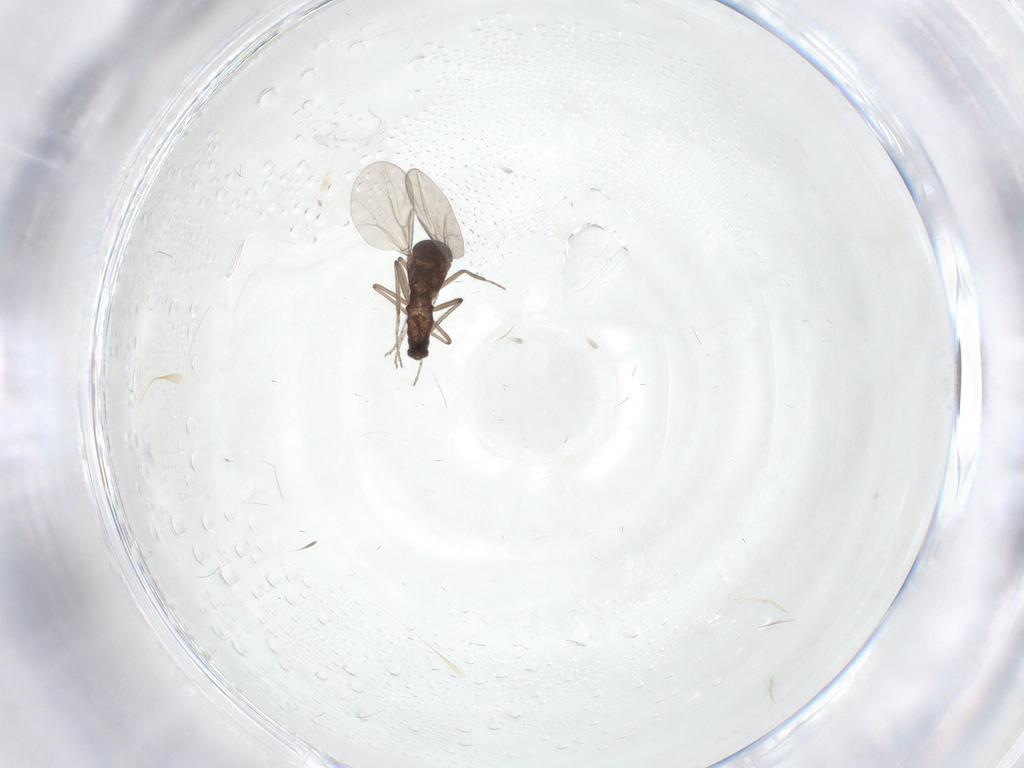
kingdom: Animalia
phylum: Arthropoda
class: Insecta
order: Diptera
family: Ceratopogonidae
